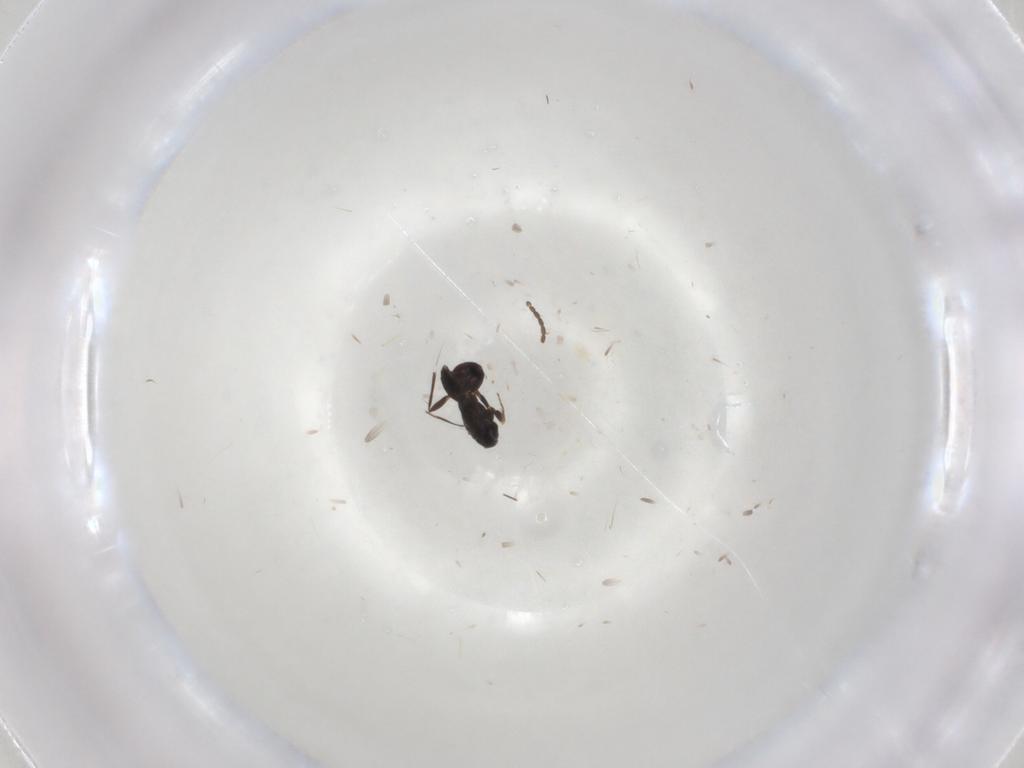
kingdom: Animalia
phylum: Arthropoda
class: Insecta
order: Hymenoptera
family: Mymaridae
